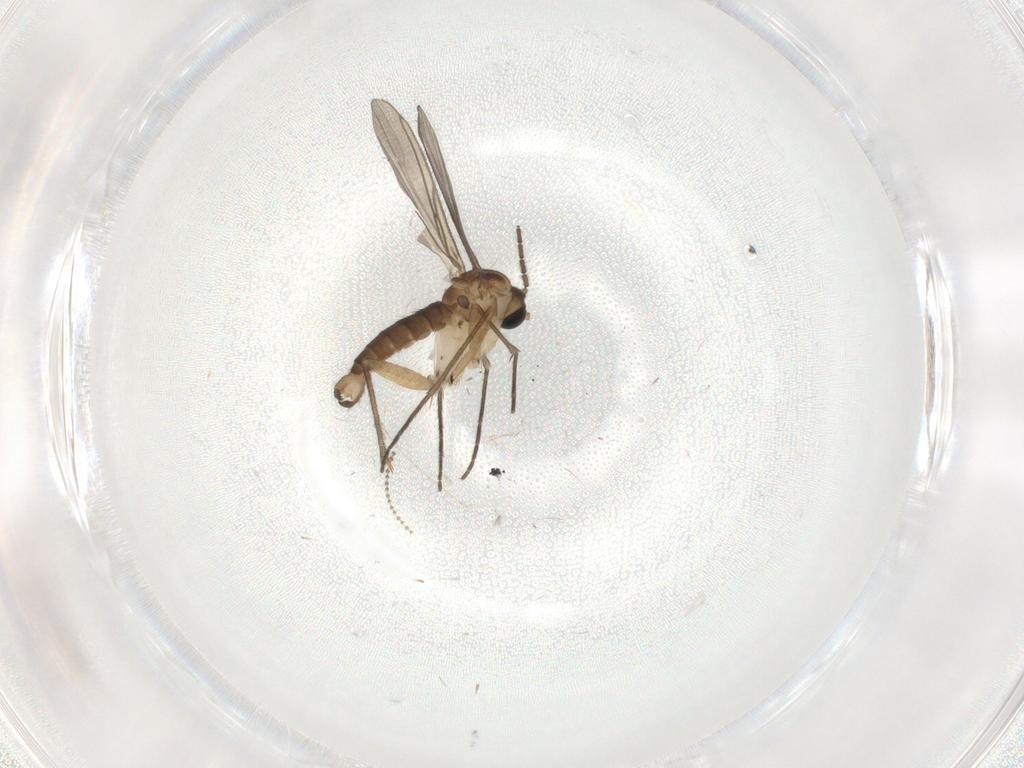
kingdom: Animalia
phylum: Arthropoda
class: Insecta
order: Diptera
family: Sciaridae
